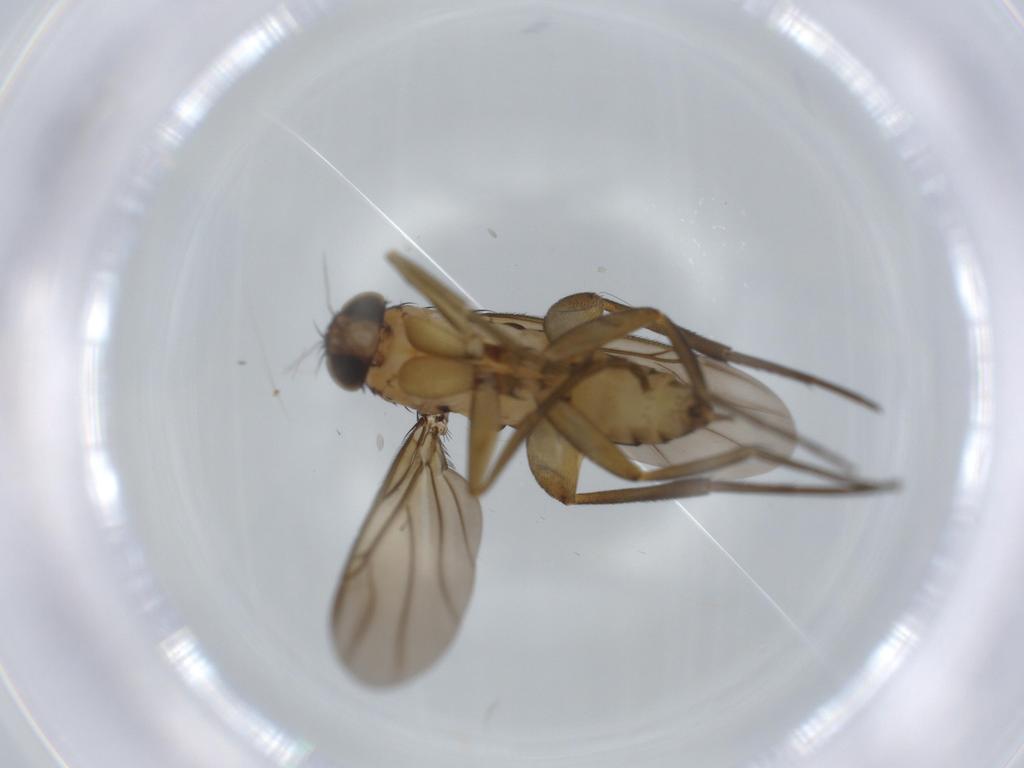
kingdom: Animalia
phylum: Arthropoda
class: Insecta
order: Diptera
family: Phoridae
